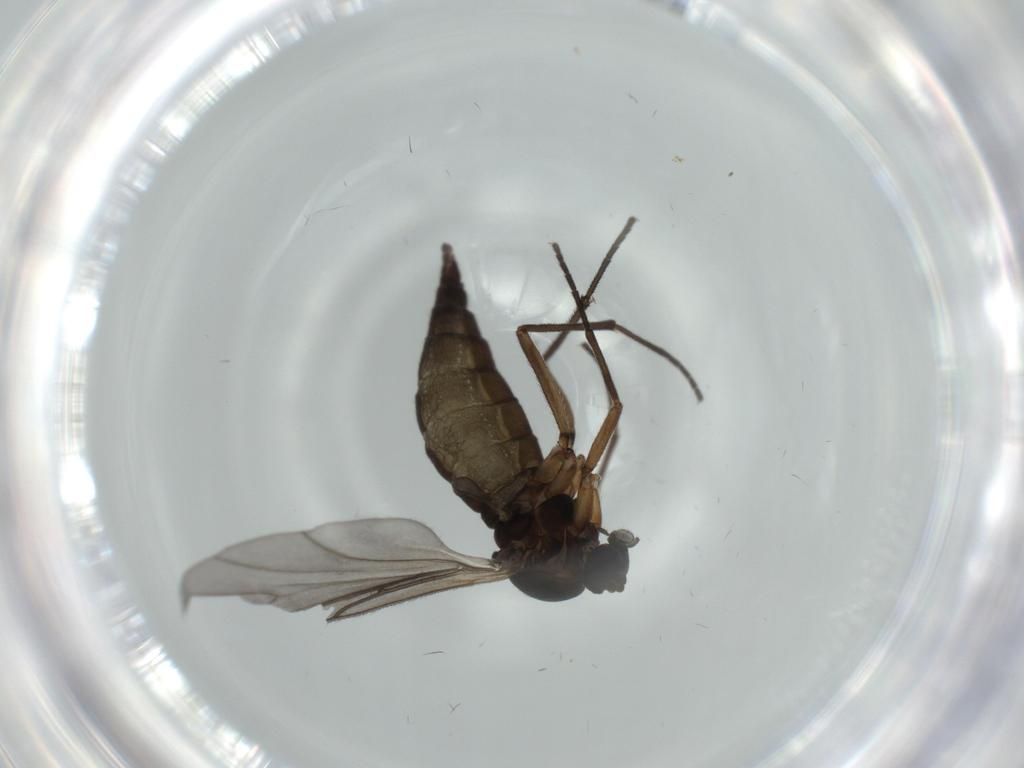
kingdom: Animalia
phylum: Arthropoda
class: Insecta
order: Diptera
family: Sciaridae
